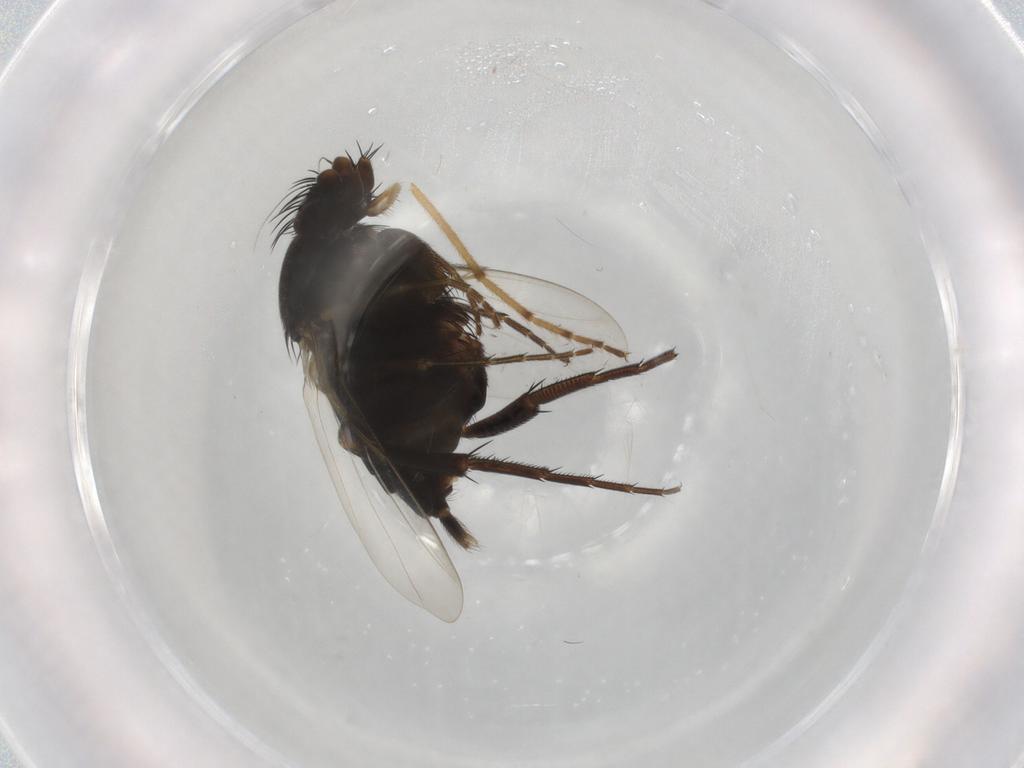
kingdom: Animalia
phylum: Arthropoda
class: Insecta
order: Diptera
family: Phoridae
